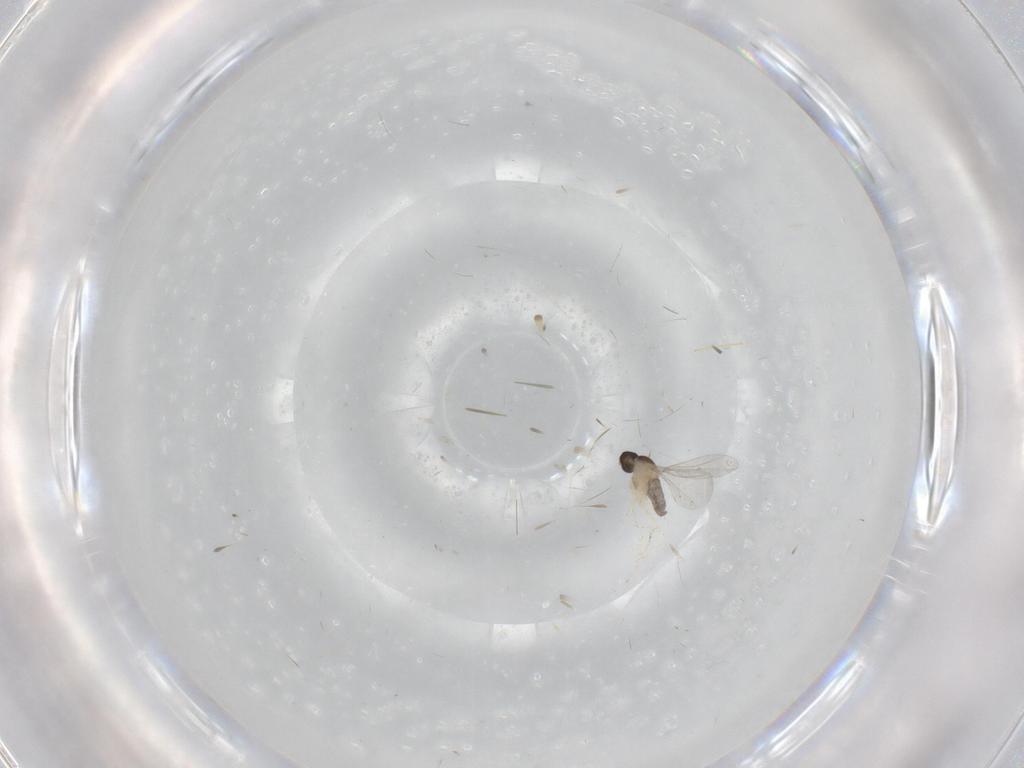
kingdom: Animalia
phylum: Arthropoda
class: Insecta
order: Diptera
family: Cecidomyiidae
